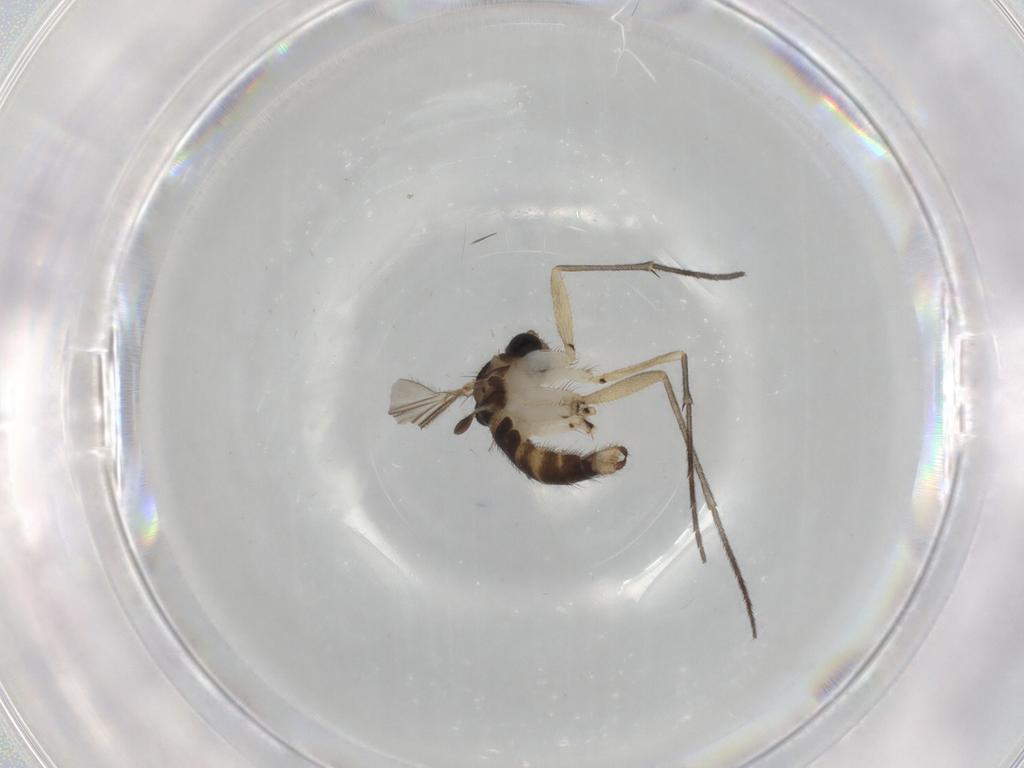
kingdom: Animalia
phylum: Arthropoda
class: Insecta
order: Diptera
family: Sciaridae
